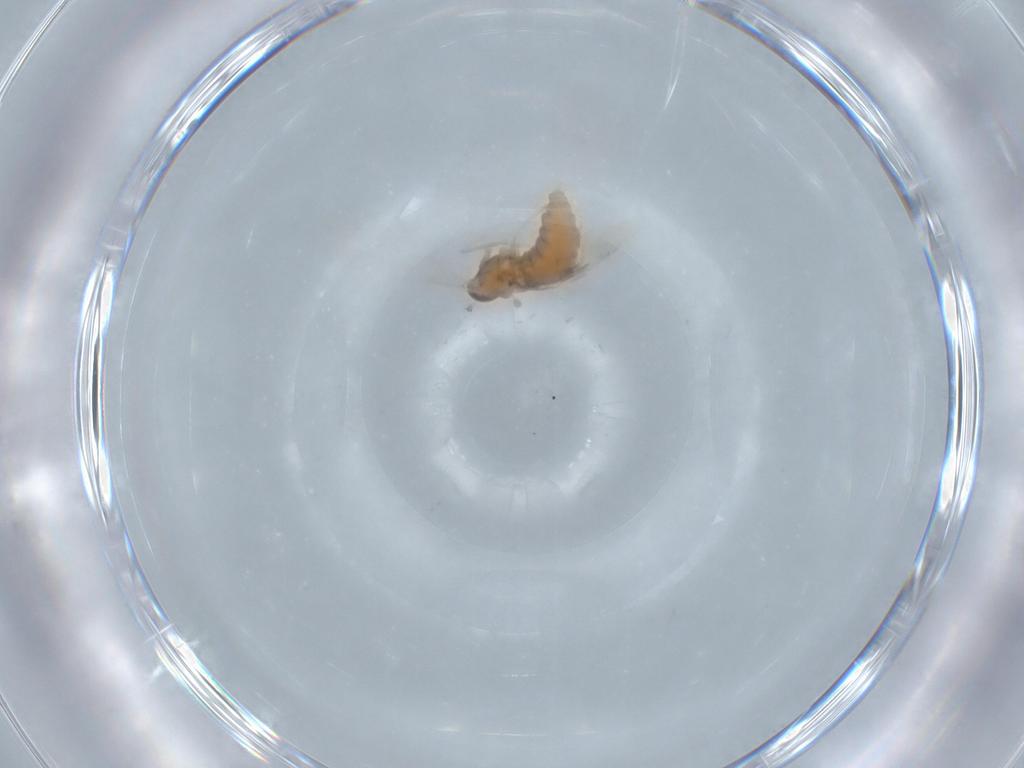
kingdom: Animalia
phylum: Arthropoda
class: Insecta
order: Diptera
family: Cecidomyiidae
